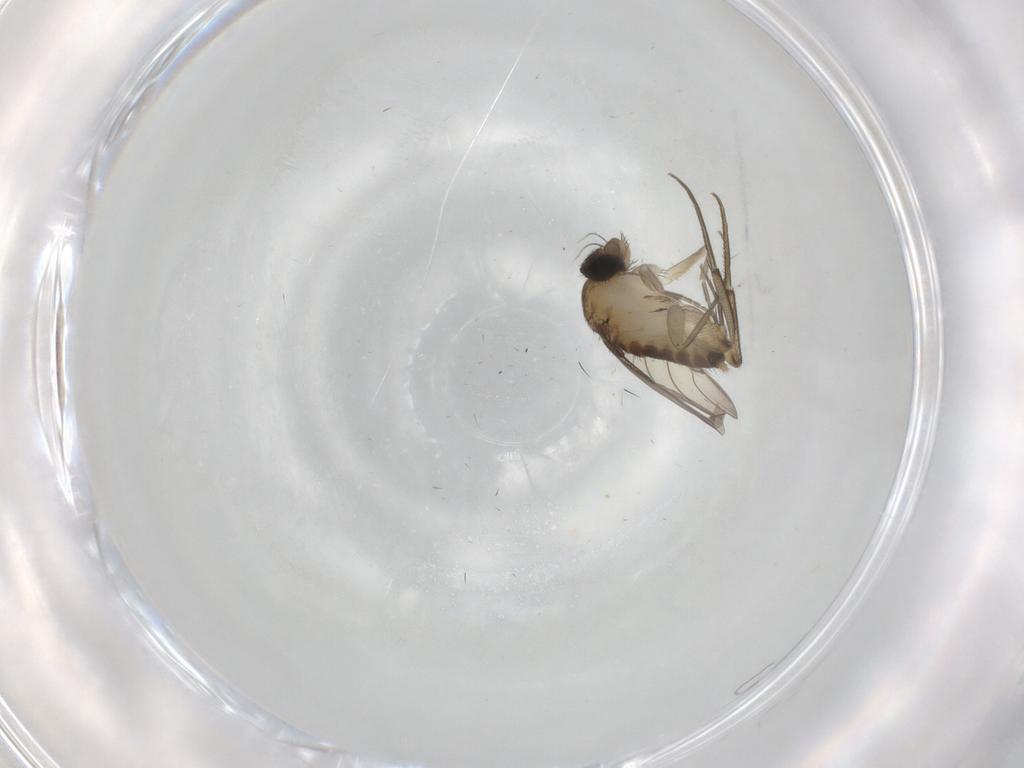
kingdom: Animalia
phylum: Arthropoda
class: Insecta
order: Diptera
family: Phoridae
